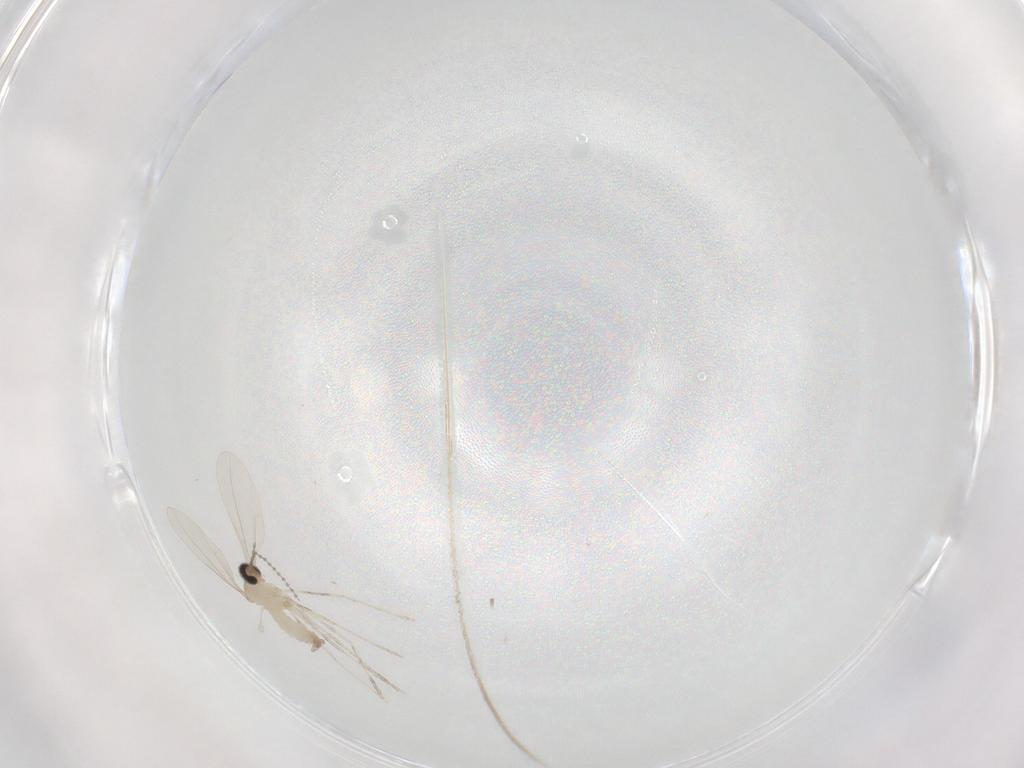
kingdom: Animalia
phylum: Arthropoda
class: Insecta
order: Diptera
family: Cecidomyiidae
